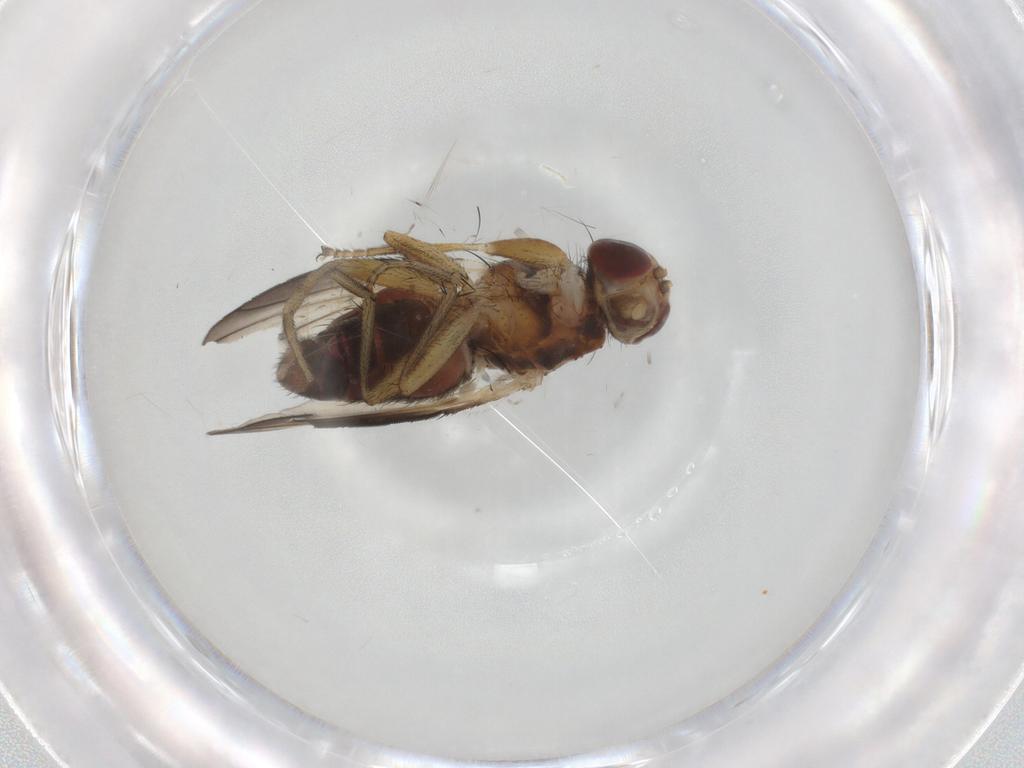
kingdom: Animalia
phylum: Arthropoda
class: Insecta
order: Diptera
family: Heleomyzidae
